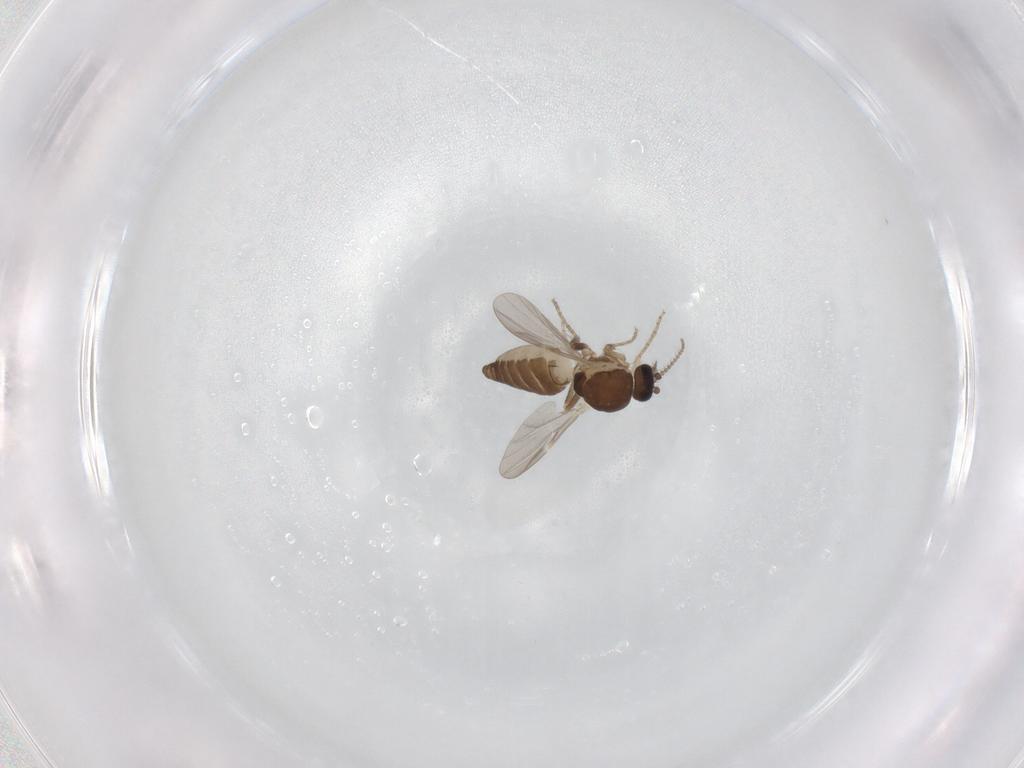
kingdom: Animalia
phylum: Arthropoda
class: Insecta
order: Diptera
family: Ceratopogonidae
